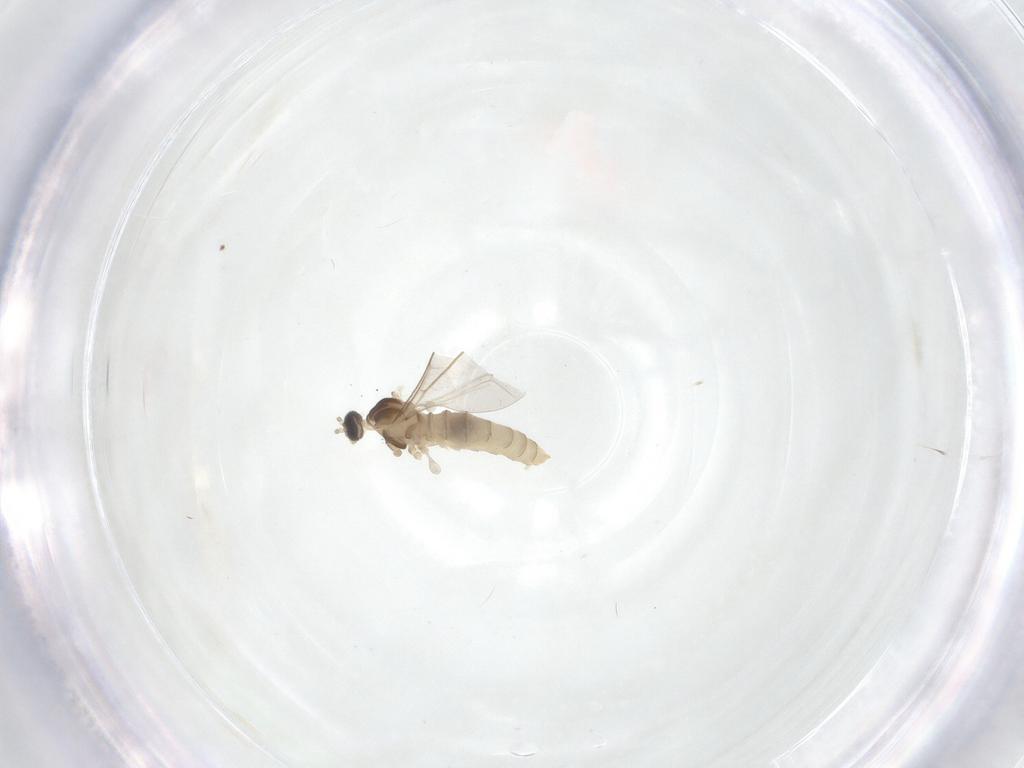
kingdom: Animalia
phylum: Arthropoda
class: Insecta
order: Diptera
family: Cecidomyiidae
